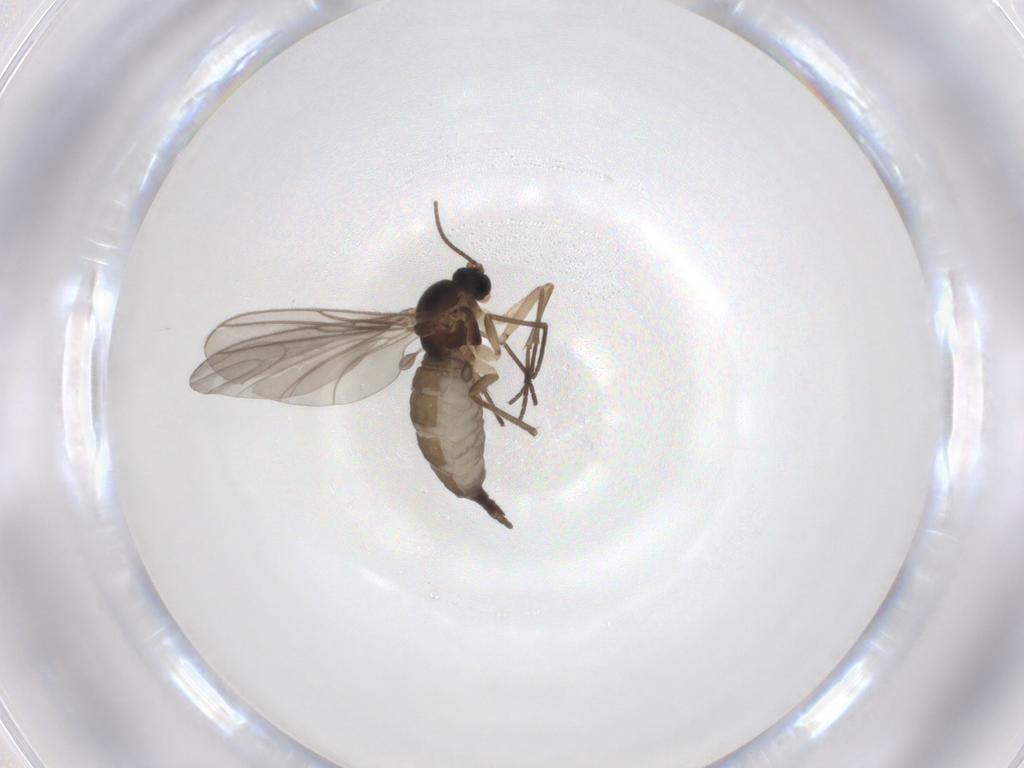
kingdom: Animalia
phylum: Arthropoda
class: Insecta
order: Diptera
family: Sciaridae
